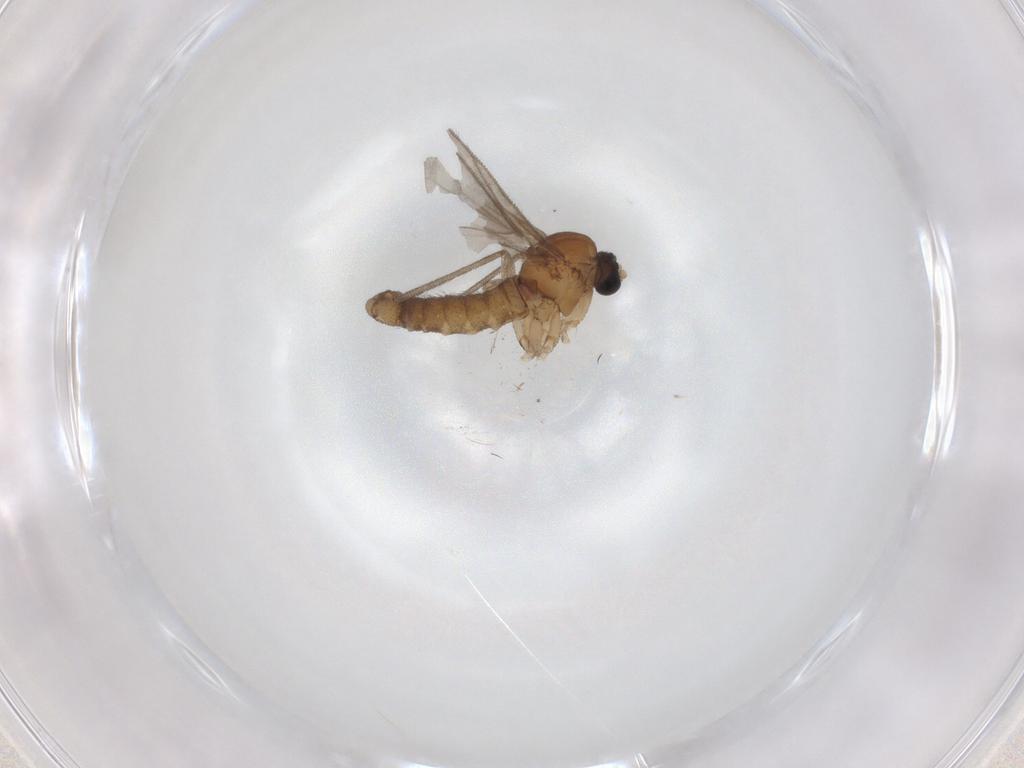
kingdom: Animalia
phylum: Arthropoda
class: Insecta
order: Diptera
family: Sciaridae
